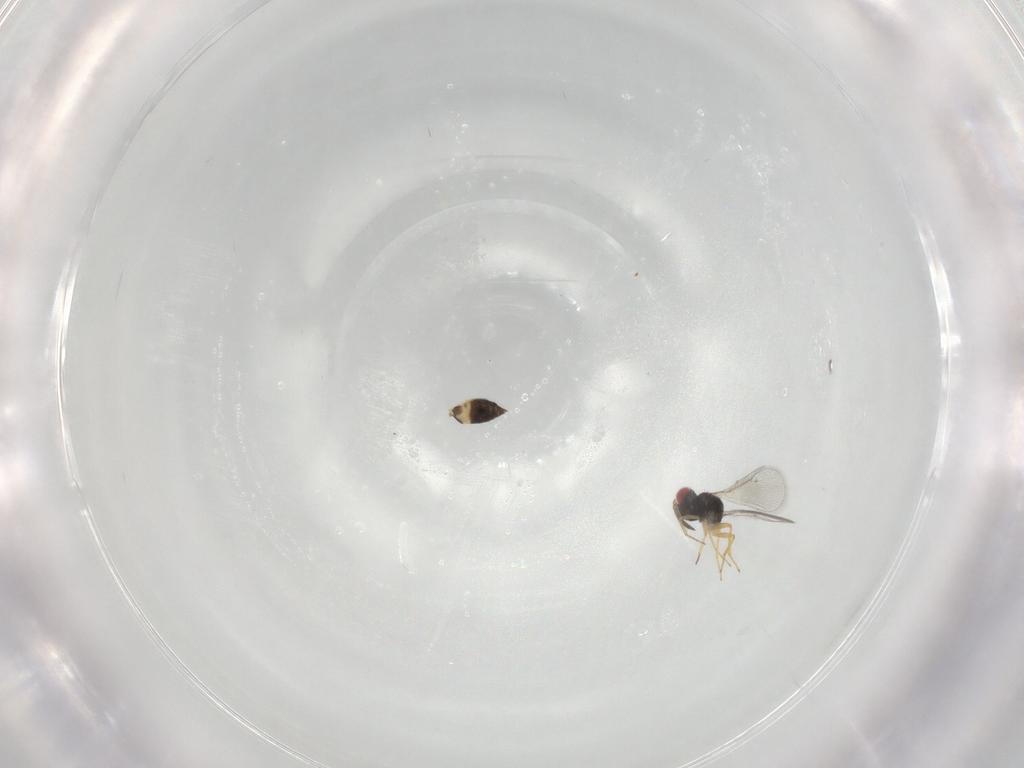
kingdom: Animalia
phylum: Arthropoda
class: Insecta
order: Hymenoptera
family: Eulophidae
